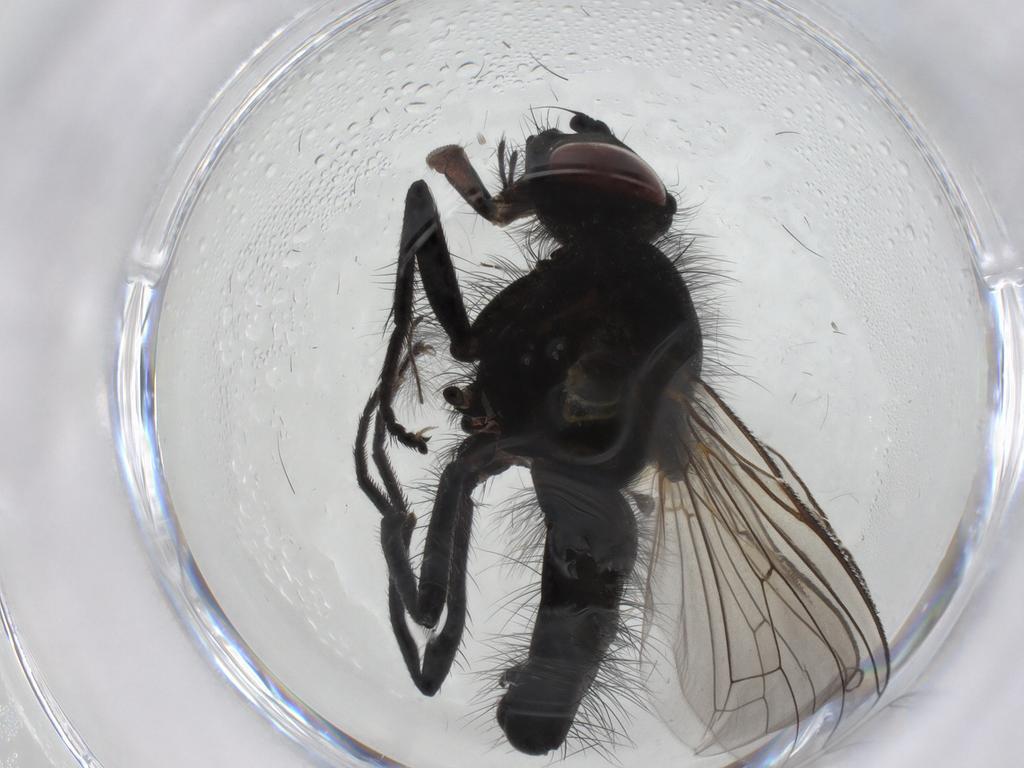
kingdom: Animalia
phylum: Arthropoda
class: Insecta
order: Diptera
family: Muscidae
